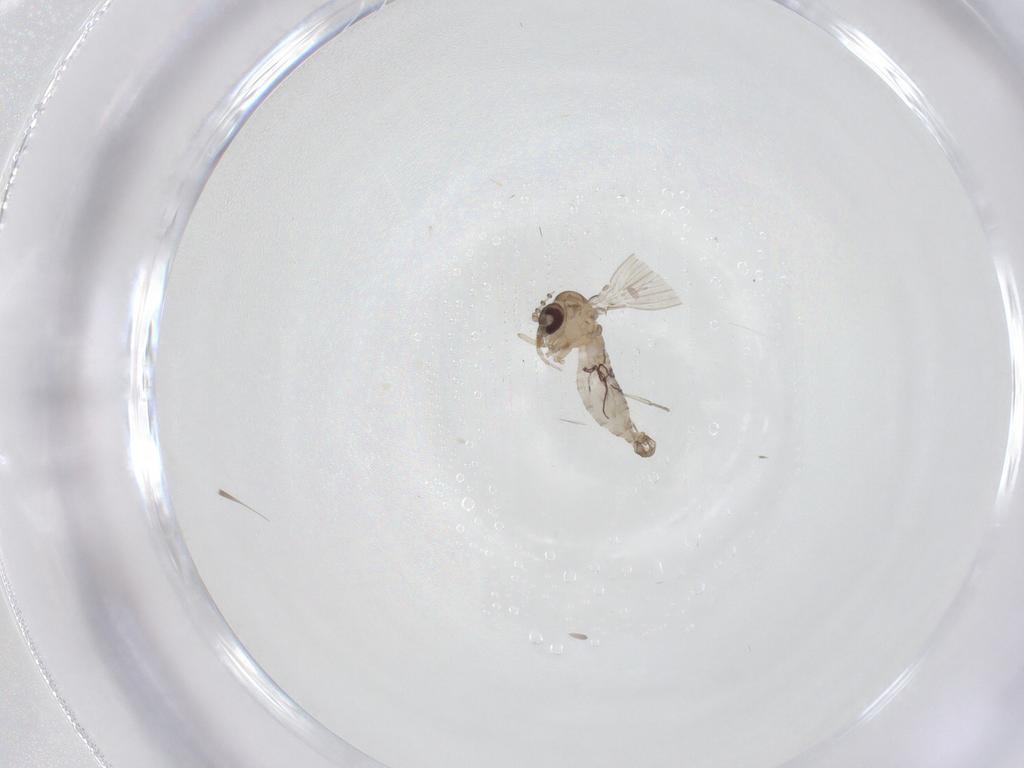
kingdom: Animalia
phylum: Arthropoda
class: Insecta
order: Diptera
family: Psychodidae
